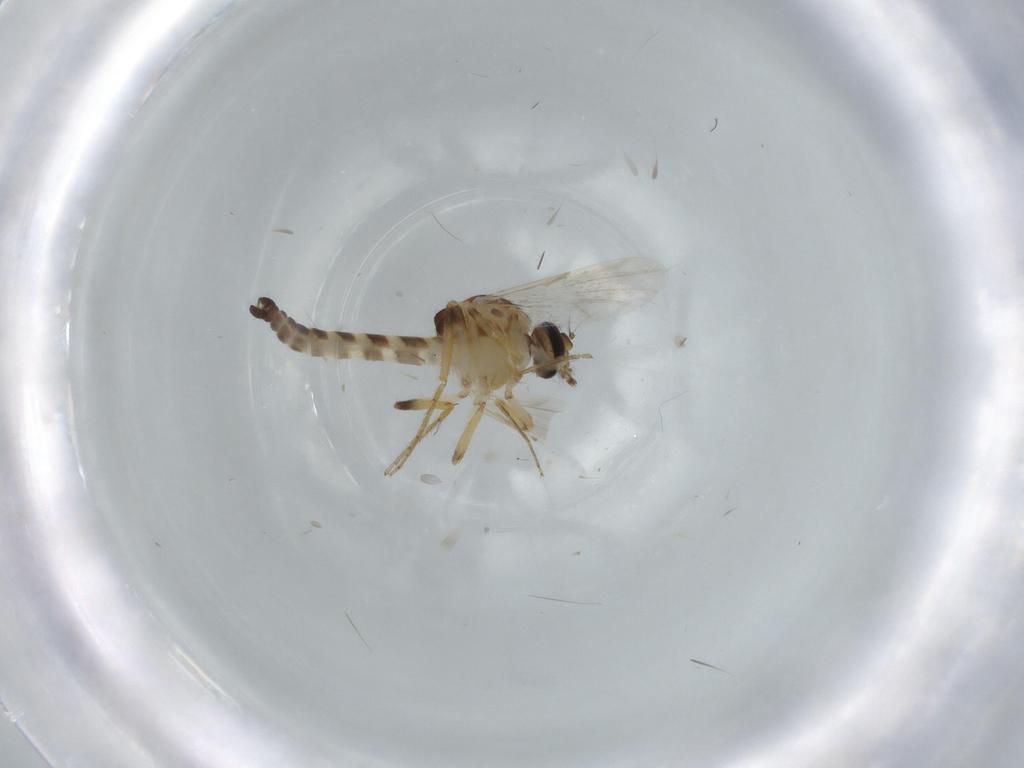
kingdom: Animalia
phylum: Arthropoda
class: Insecta
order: Diptera
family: Ceratopogonidae
